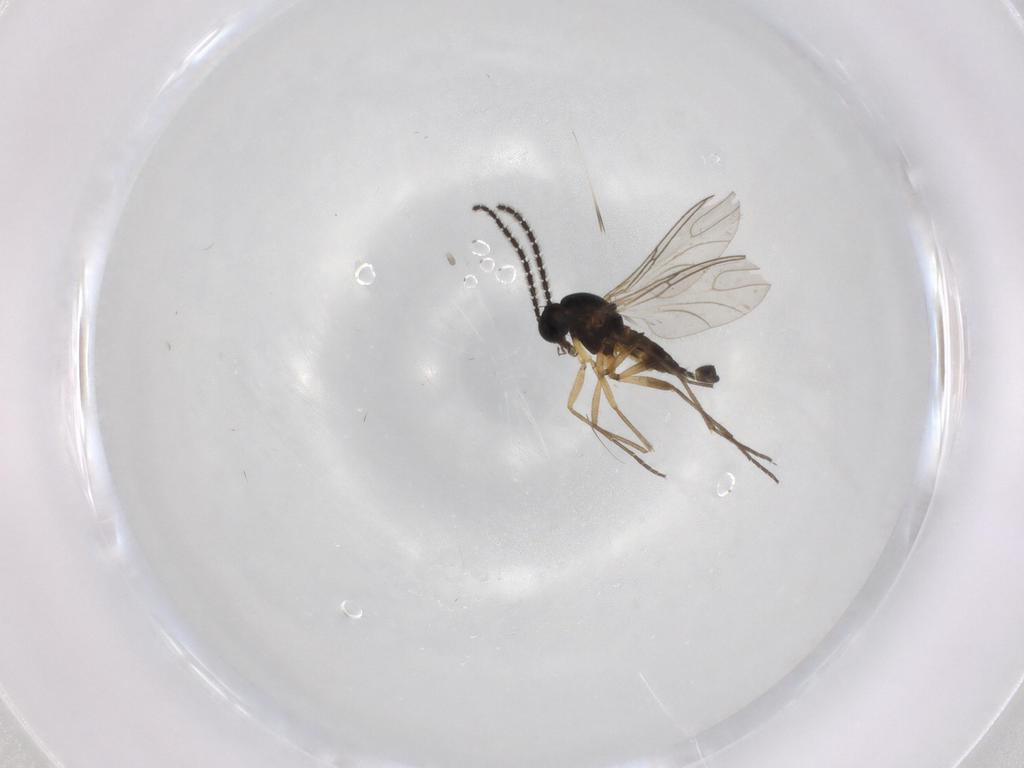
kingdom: Animalia
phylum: Arthropoda
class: Insecta
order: Diptera
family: Sciaridae
